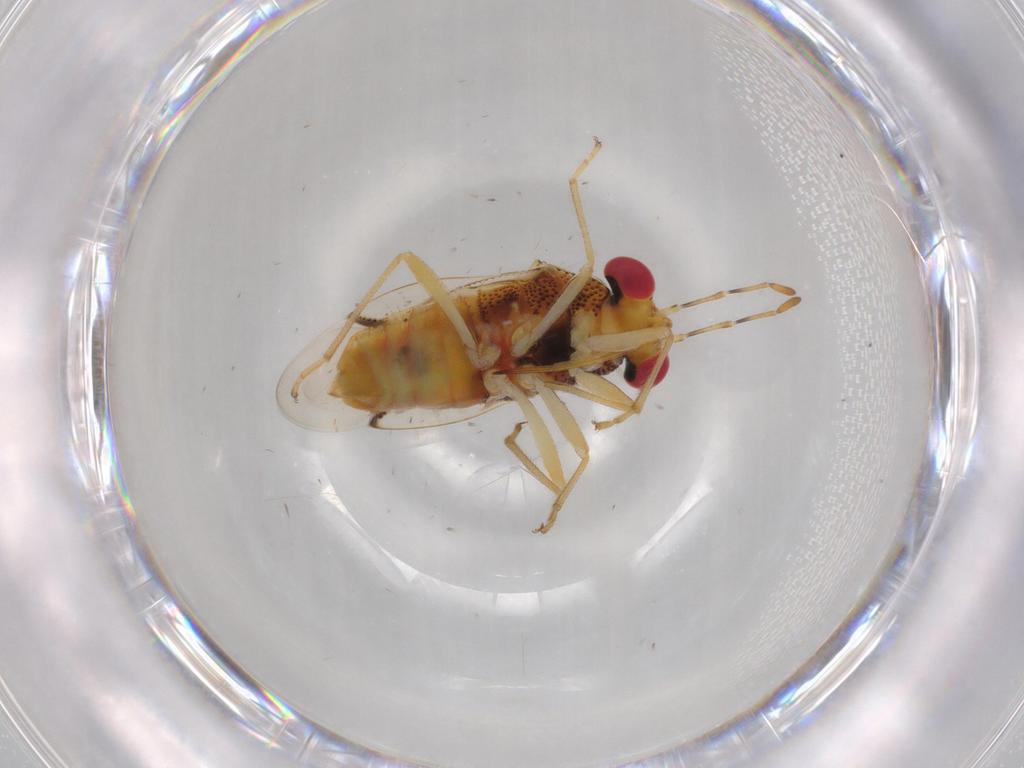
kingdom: Animalia
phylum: Arthropoda
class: Insecta
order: Hemiptera
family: Geocoridae
